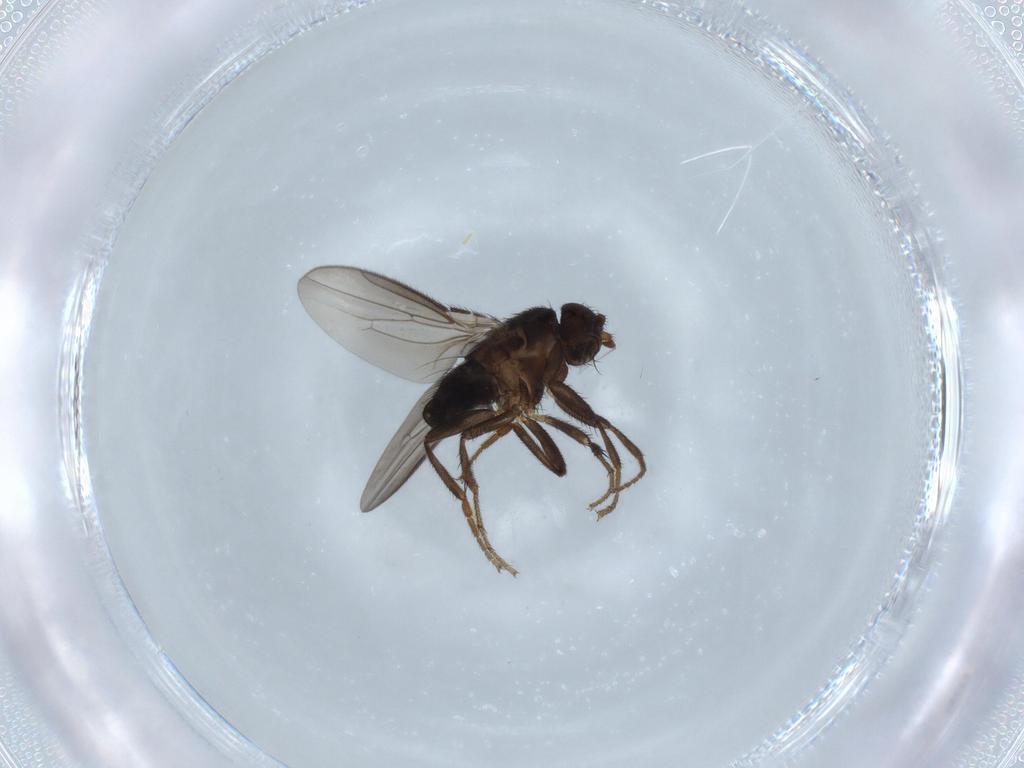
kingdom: Animalia
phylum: Arthropoda
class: Insecta
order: Diptera
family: Sphaeroceridae
